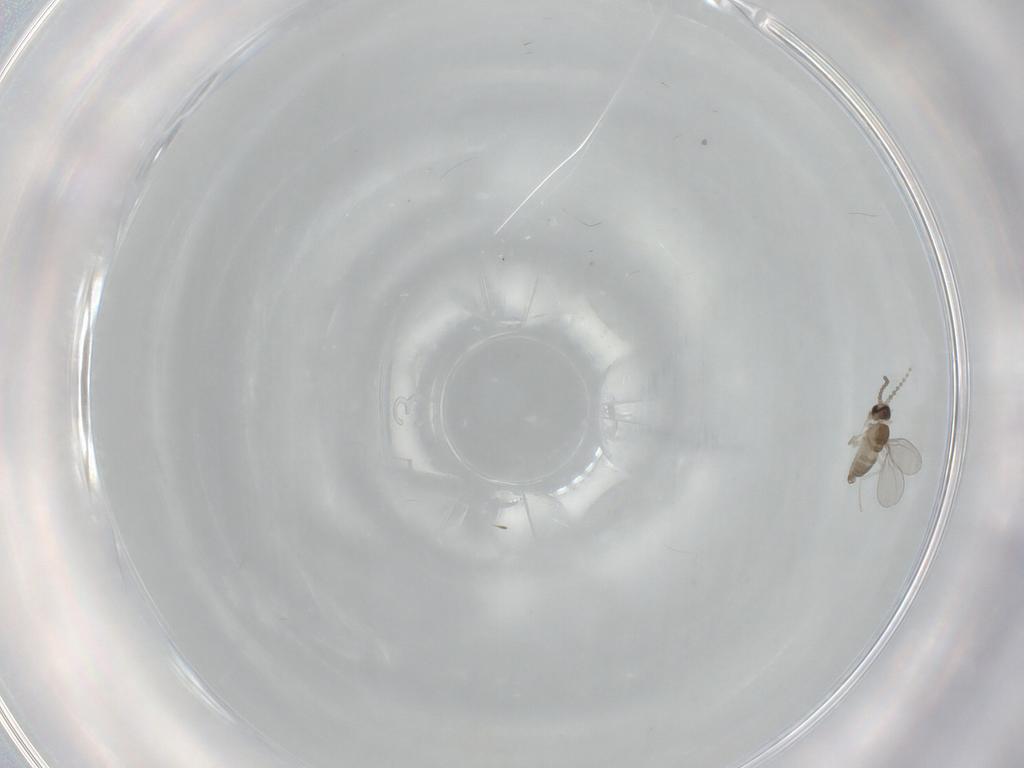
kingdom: Animalia
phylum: Arthropoda
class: Insecta
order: Diptera
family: Cecidomyiidae
